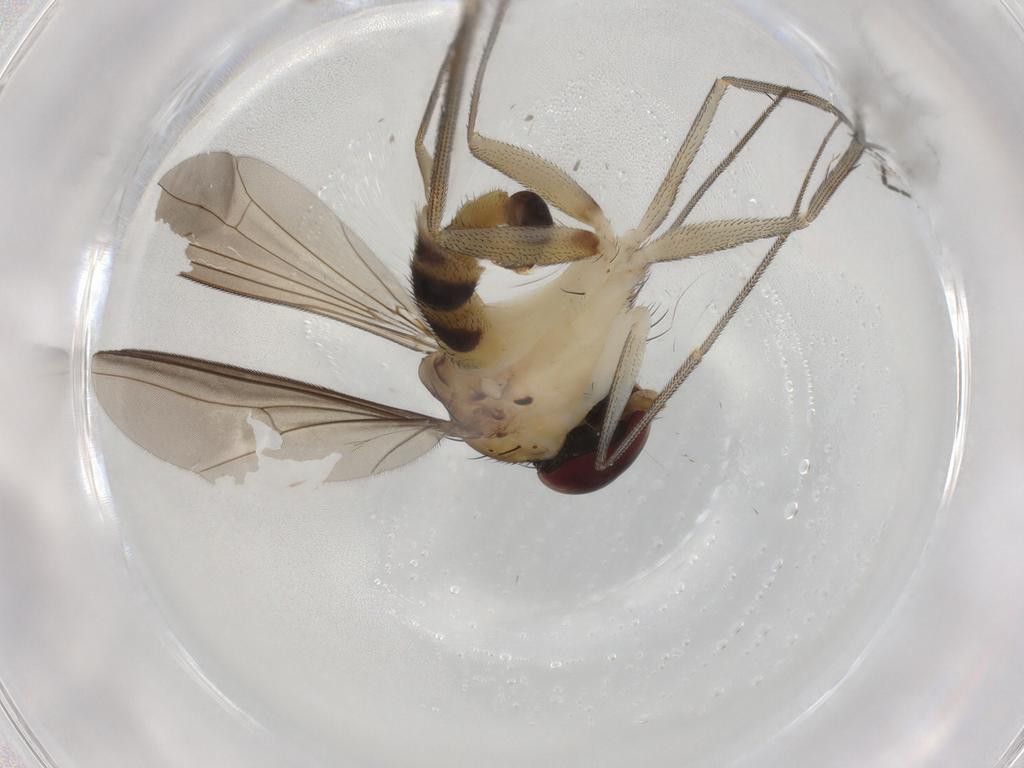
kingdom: Animalia
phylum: Arthropoda
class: Insecta
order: Diptera
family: Dolichopodidae
